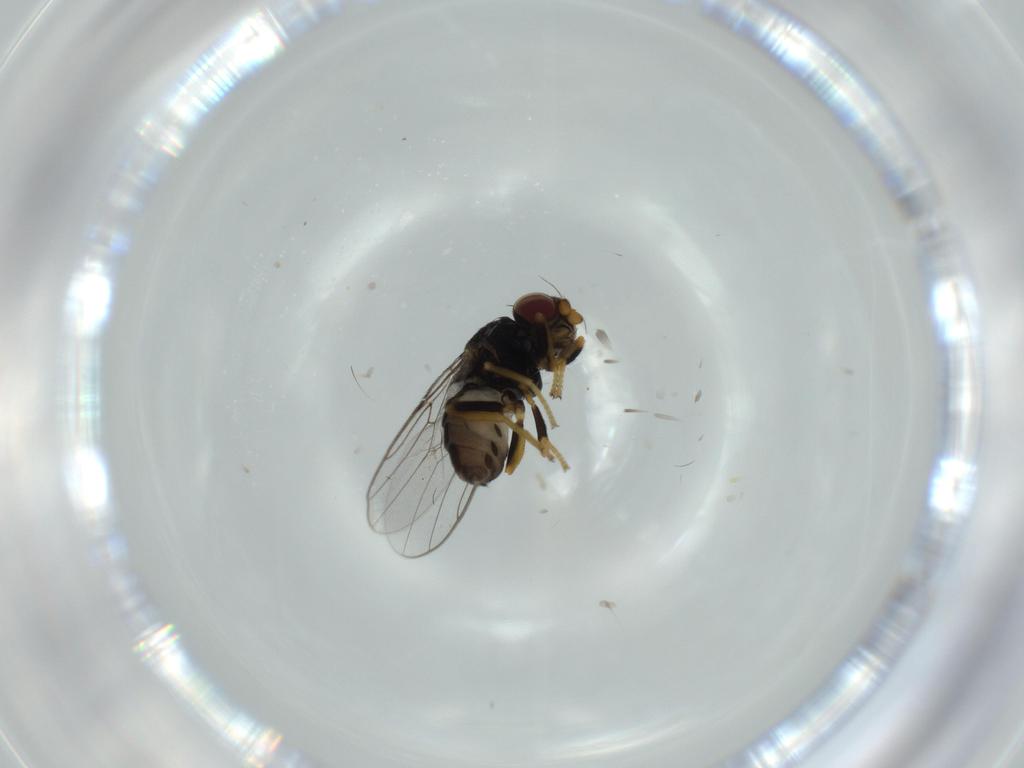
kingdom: Animalia
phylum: Arthropoda
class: Insecta
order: Diptera
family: Chloropidae
